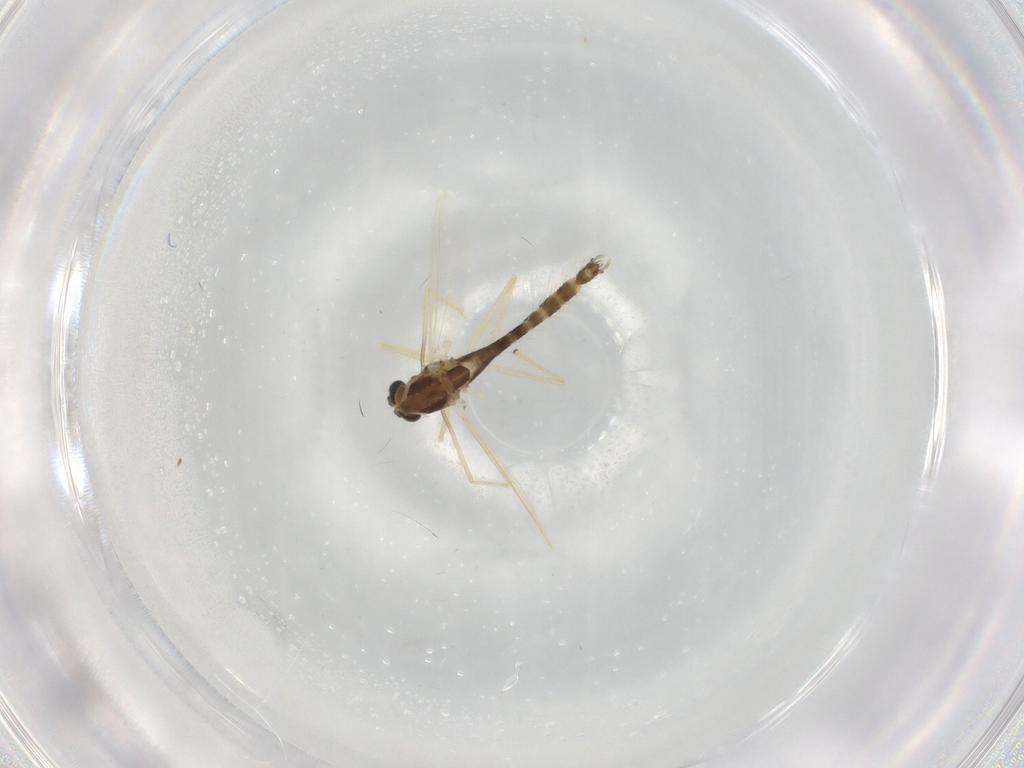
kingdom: Animalia
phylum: Arthropoda
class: Insecta
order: Diptera
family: Chironomidae
